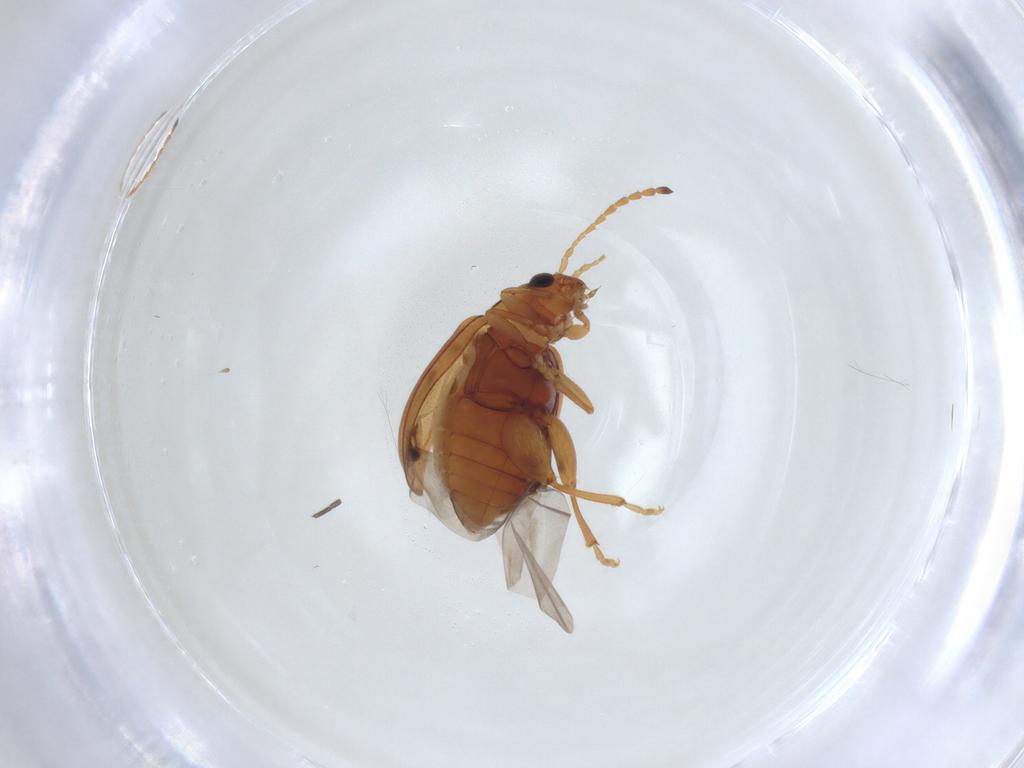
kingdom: Animalia
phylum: Arthropoda
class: Insecta
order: Coleoptera
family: Chrysomelidae
